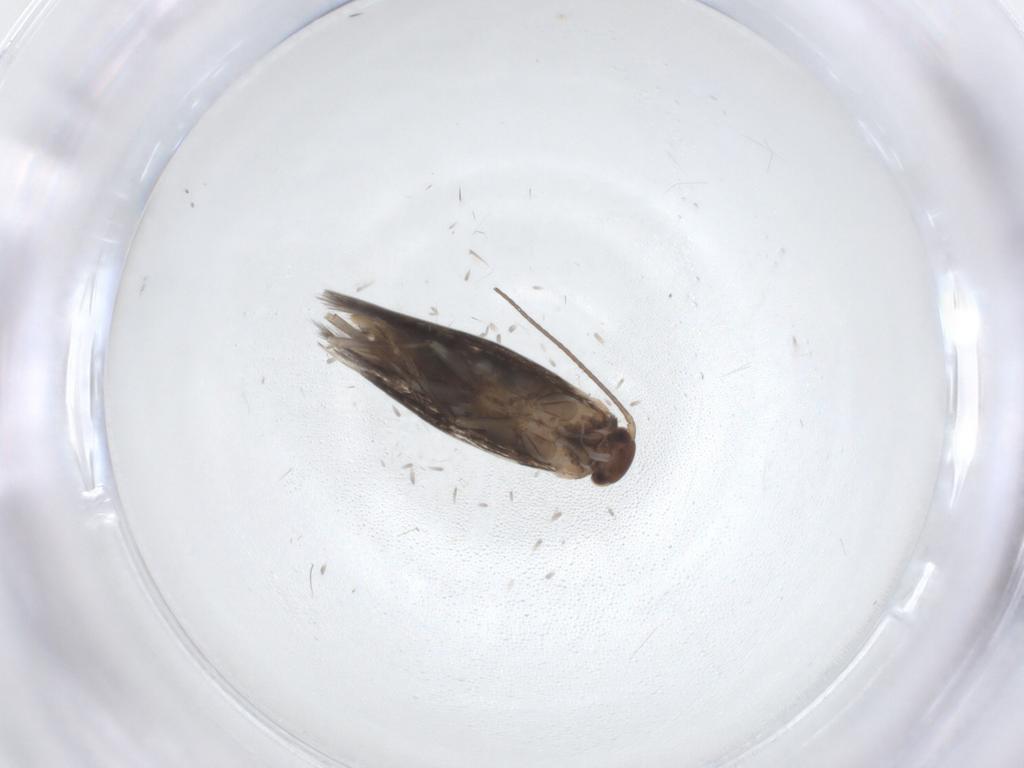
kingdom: Animalia
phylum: Arthropoda
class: Insecta
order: Lepidoptera
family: Elachistidae
